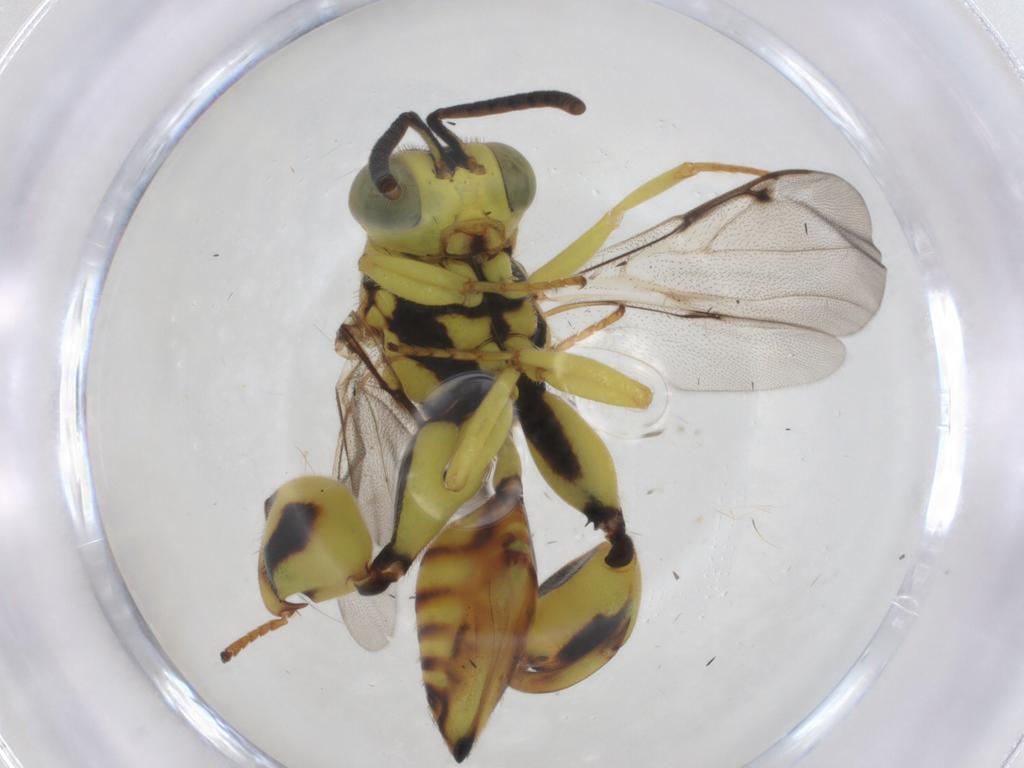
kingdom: Animalia
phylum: Arthropoda
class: Insecta
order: Hymenoptera
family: Chalcididae
